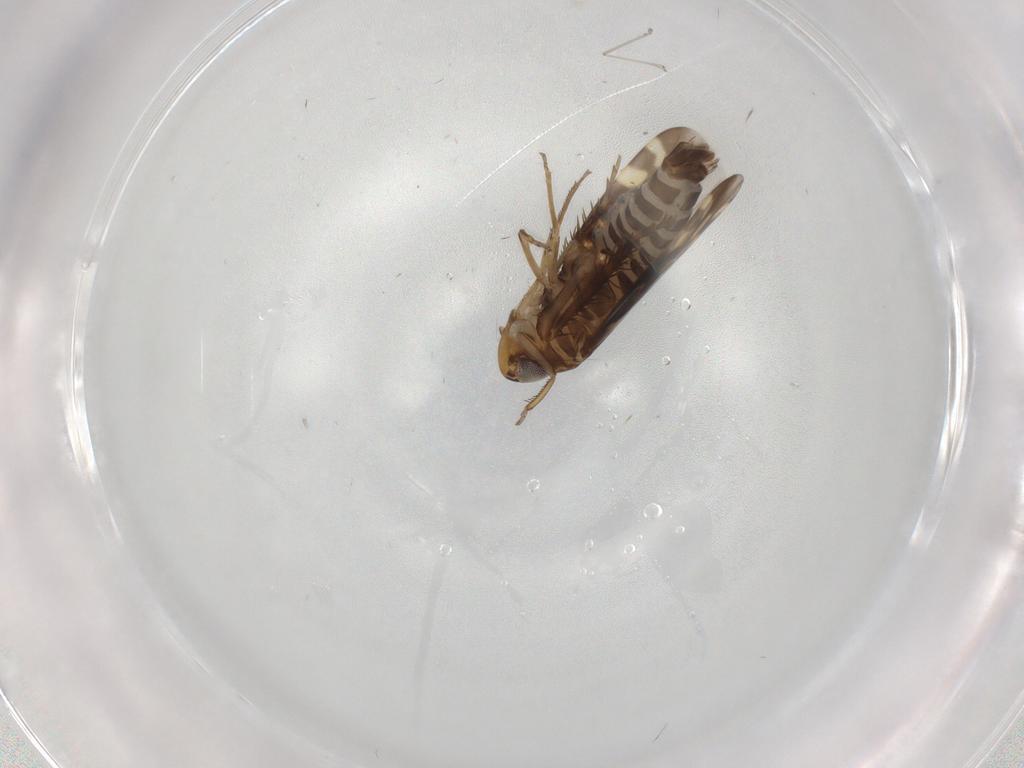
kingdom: Animalia
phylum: Arthropoda
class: Insecta
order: Hemiptera
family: Cicadellidae
